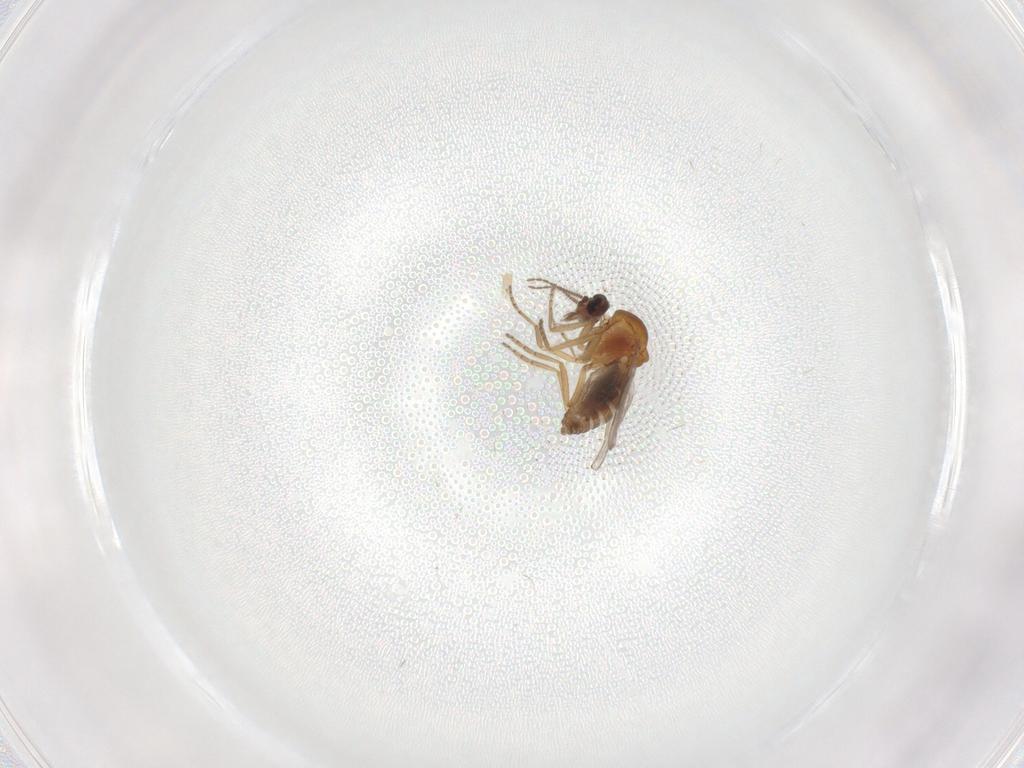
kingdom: Animalia
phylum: Arthropoda
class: Insecta
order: Diptera
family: Ceratopogonidae
